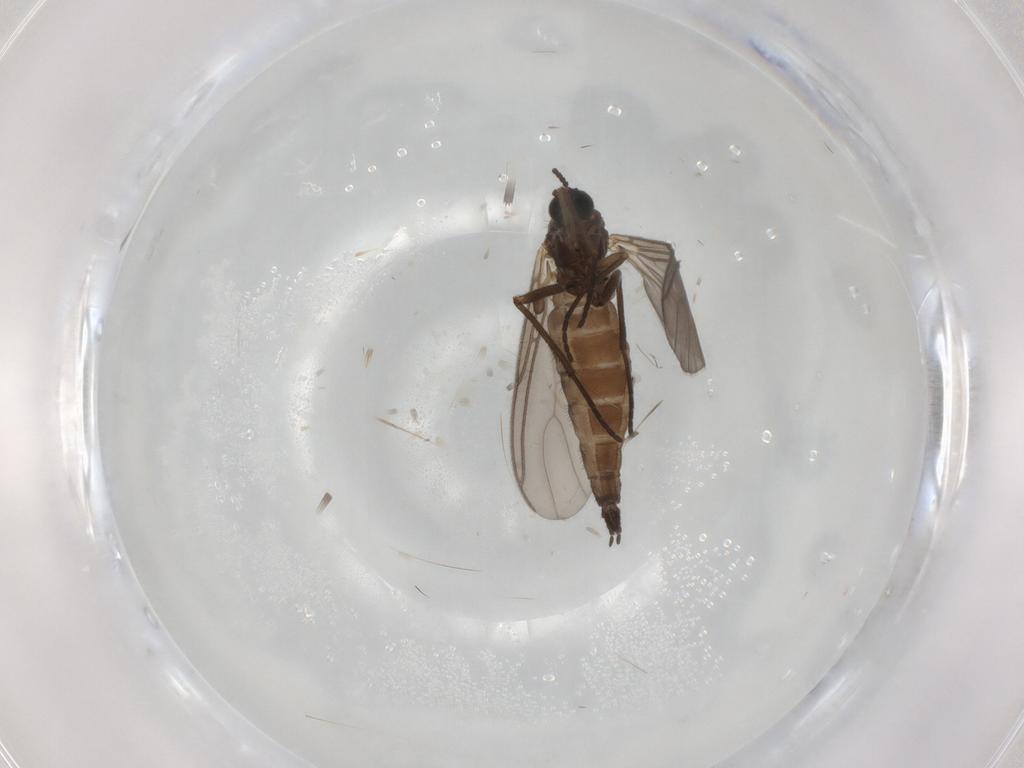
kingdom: Animalia
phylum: Arthropoda
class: Insecta
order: Diptera
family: Sciaridae
